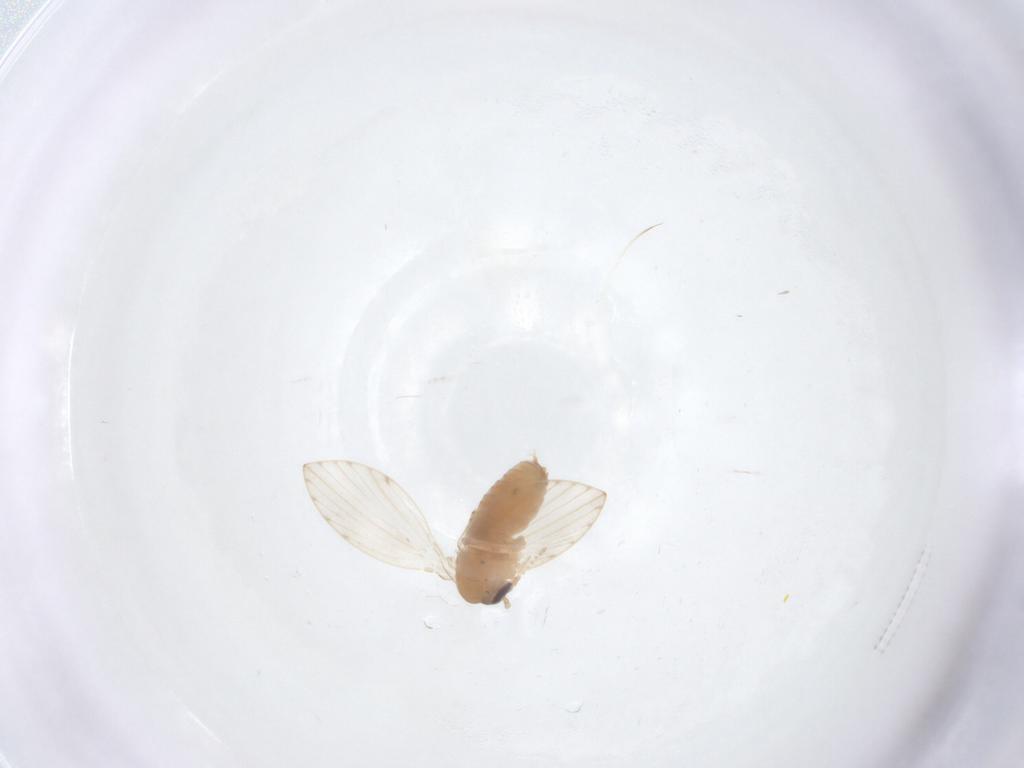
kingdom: Animalia
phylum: Arthropoda
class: Insecta
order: Diptera
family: Psychodidae
